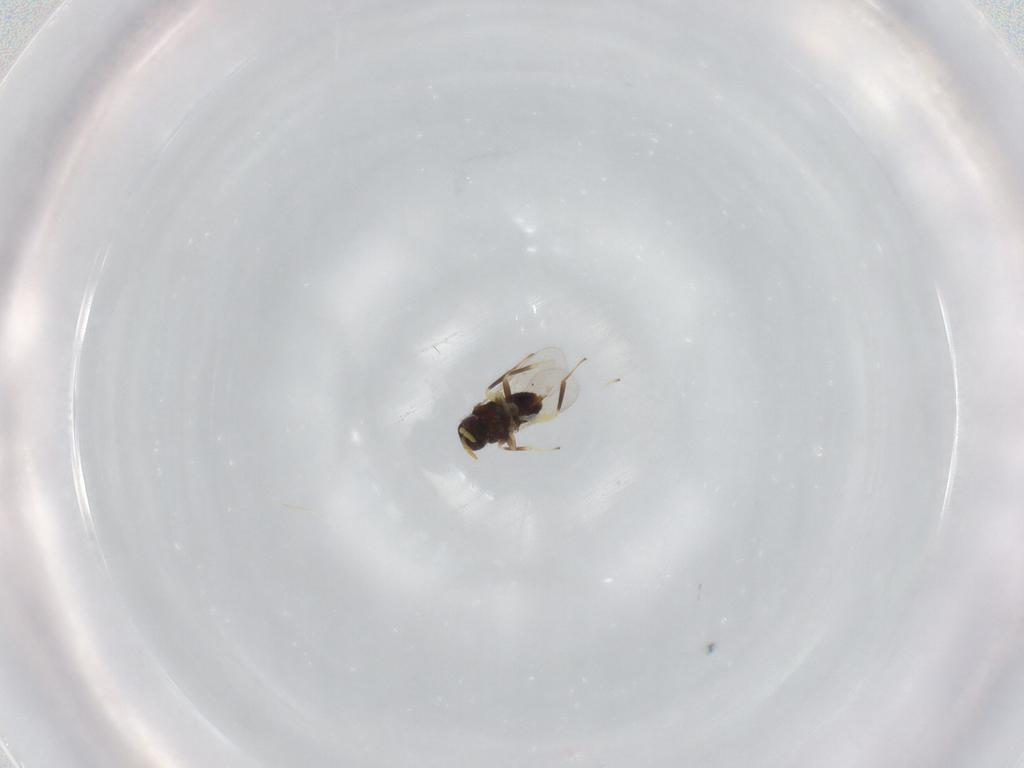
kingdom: Animalia
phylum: Arthropoda
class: Insecta
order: Hymenoptera
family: Aphelinidae
